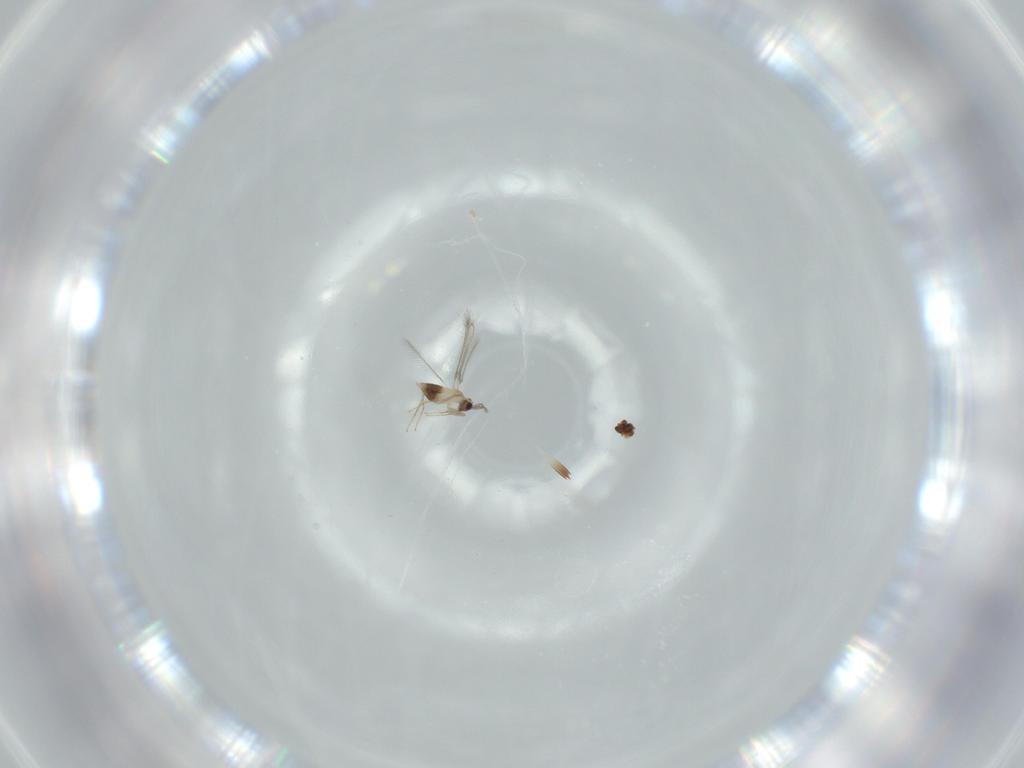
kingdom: Animalia
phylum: Arthropoda
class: Insecta
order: Hymenoptera
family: Mymaridae
